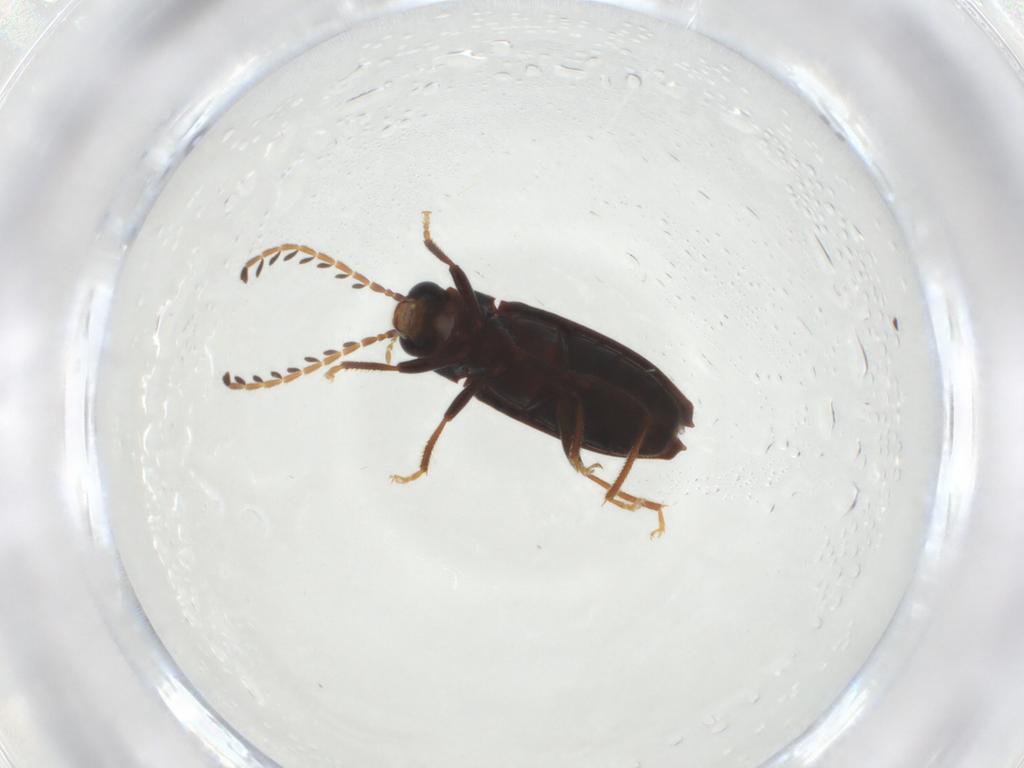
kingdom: Animalia
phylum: Arthropoda
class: Insecta
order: Coleoptera
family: Ptilodactylidae
